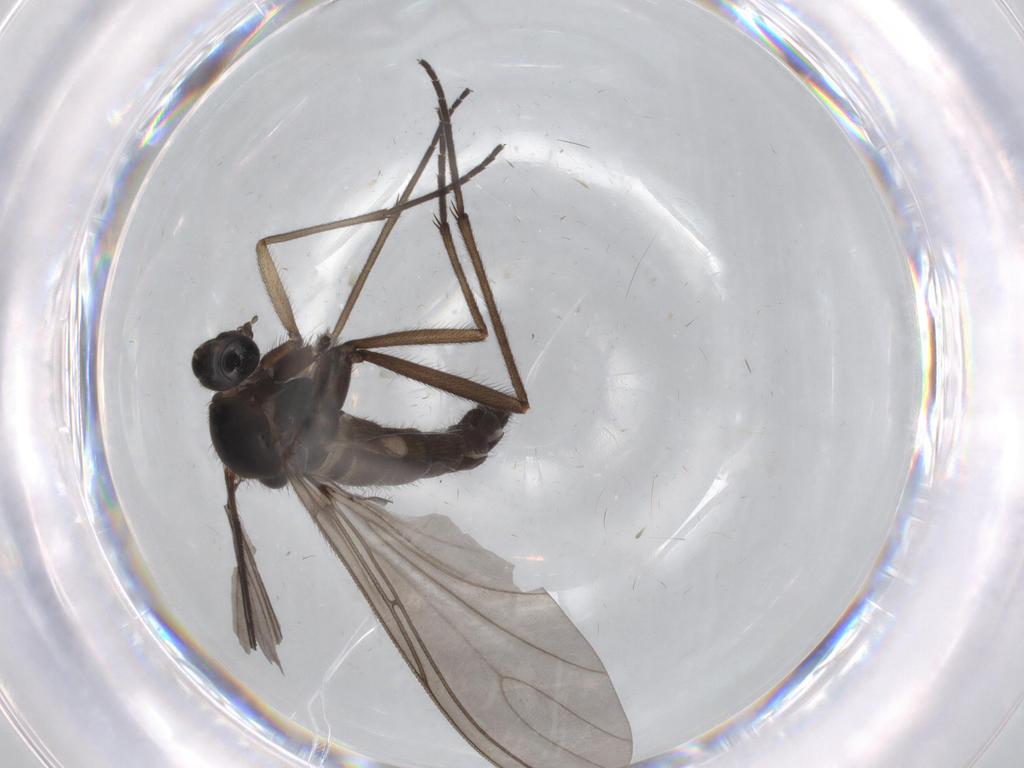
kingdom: Animalia
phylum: Arthropoda
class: Insecta
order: Diptera
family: Sciaridae
